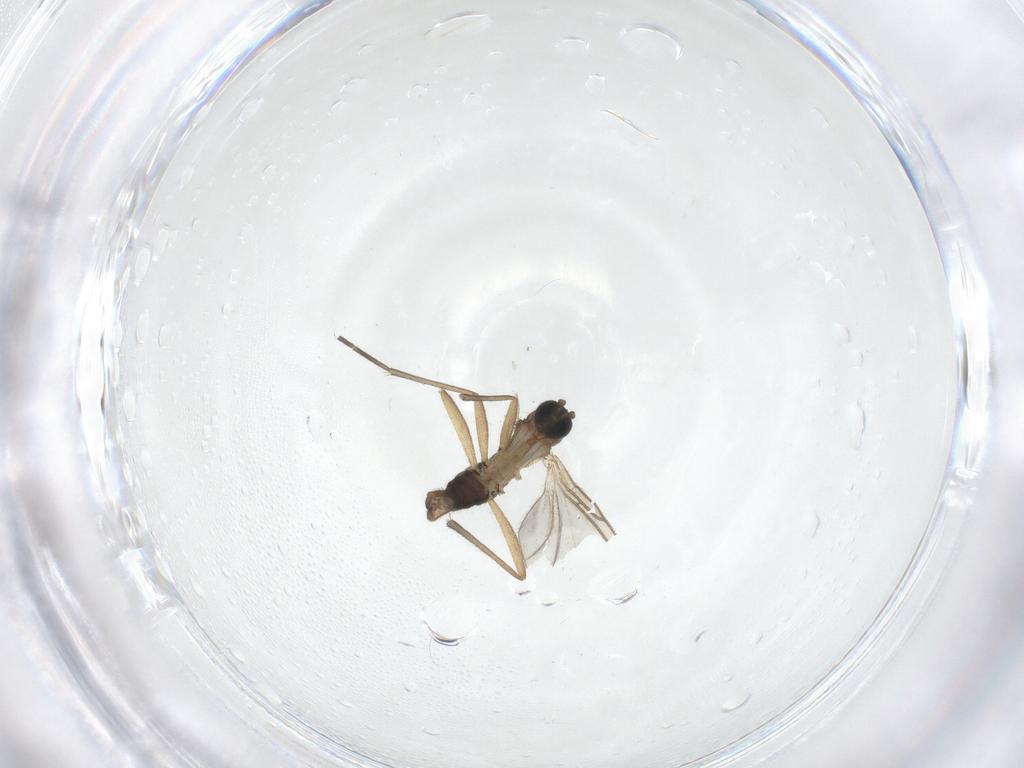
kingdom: Animalia
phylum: Arthropoda
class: Insecta
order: Diptera
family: Sciaridae
